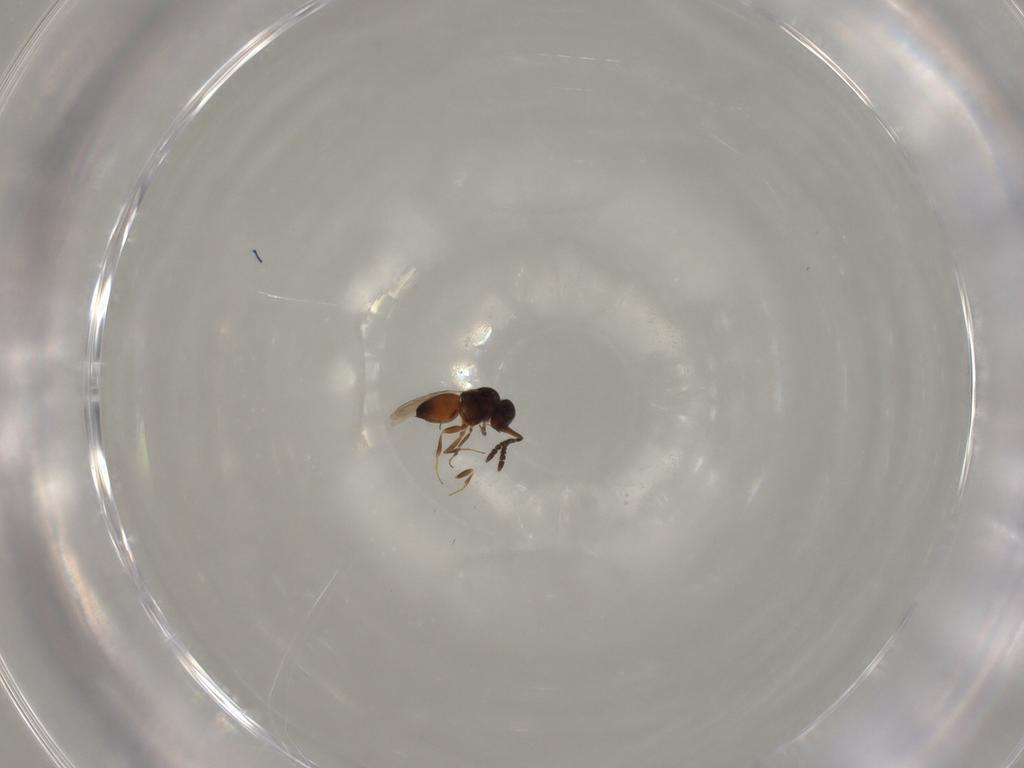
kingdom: Animalia
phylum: Arthropoda
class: Insecta
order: Hymenoptera
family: Ceraphronidae
